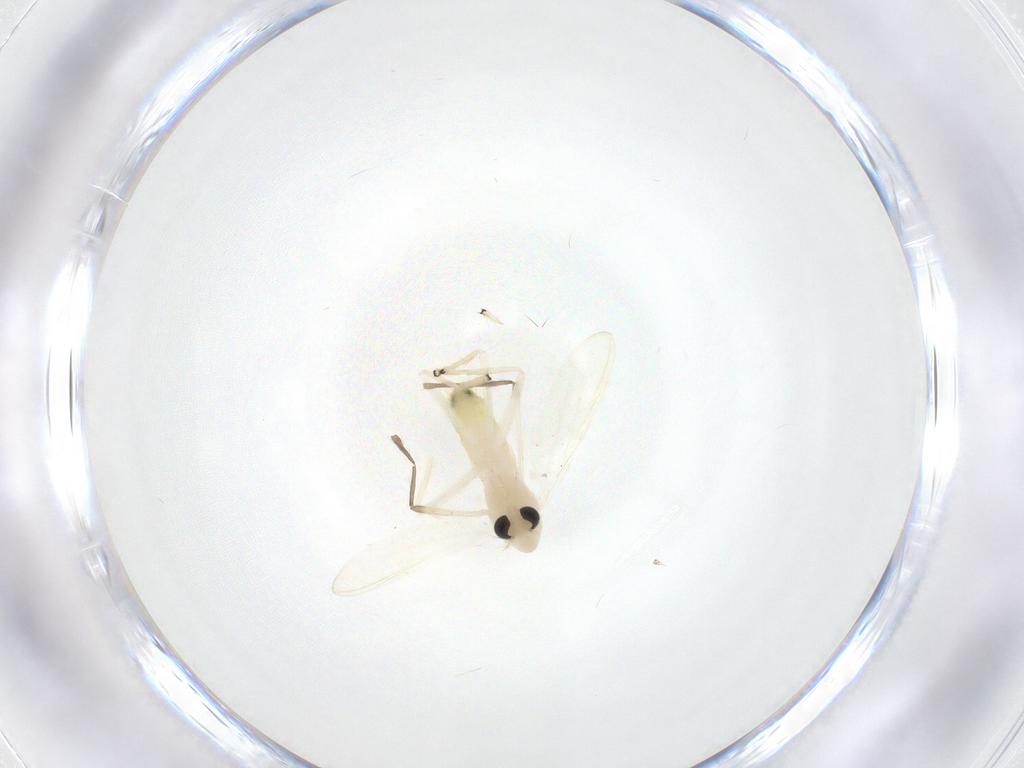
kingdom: Animalia
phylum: Arthropoda
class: Insecta
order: Diptera
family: Chironomidae
